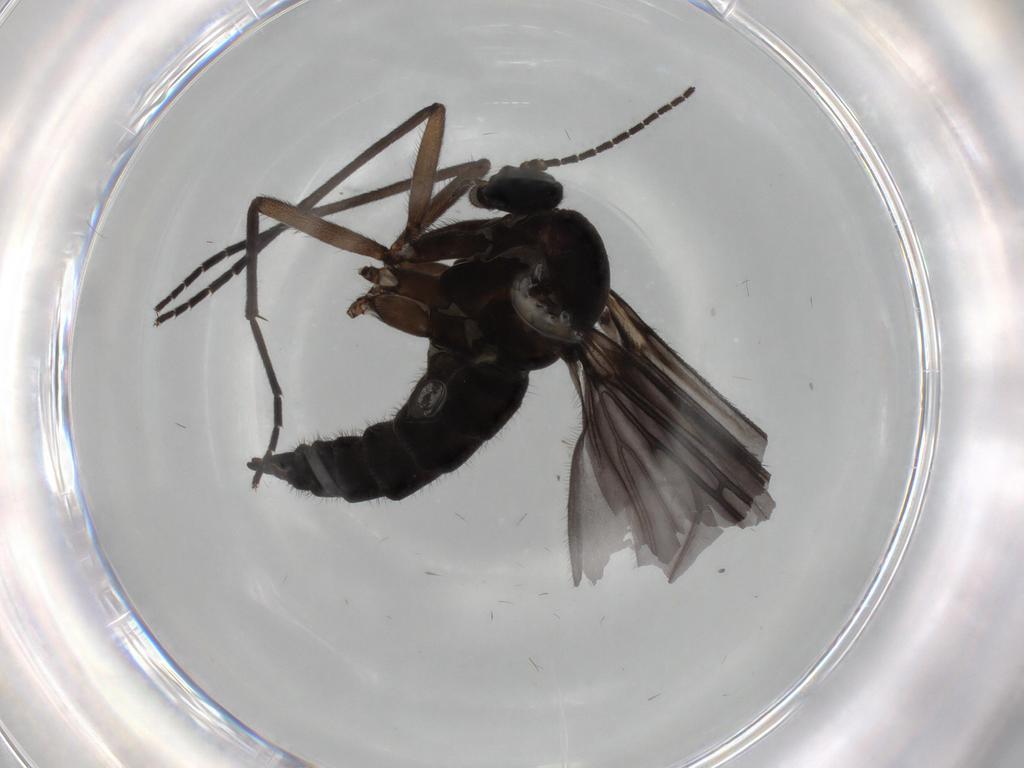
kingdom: Animalia
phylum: Arthropoda
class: Insecta
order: Diptera
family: Sciaridae
